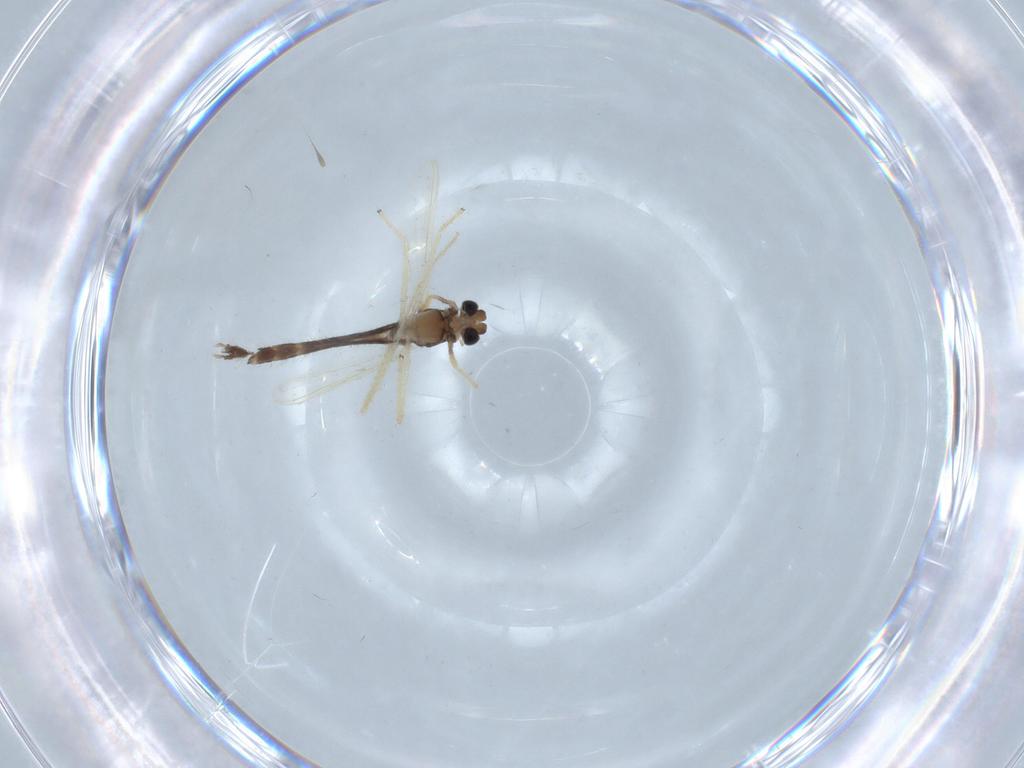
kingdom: Animalia
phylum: Arthropoda
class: Insecta
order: Diptera
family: Chironomidae
